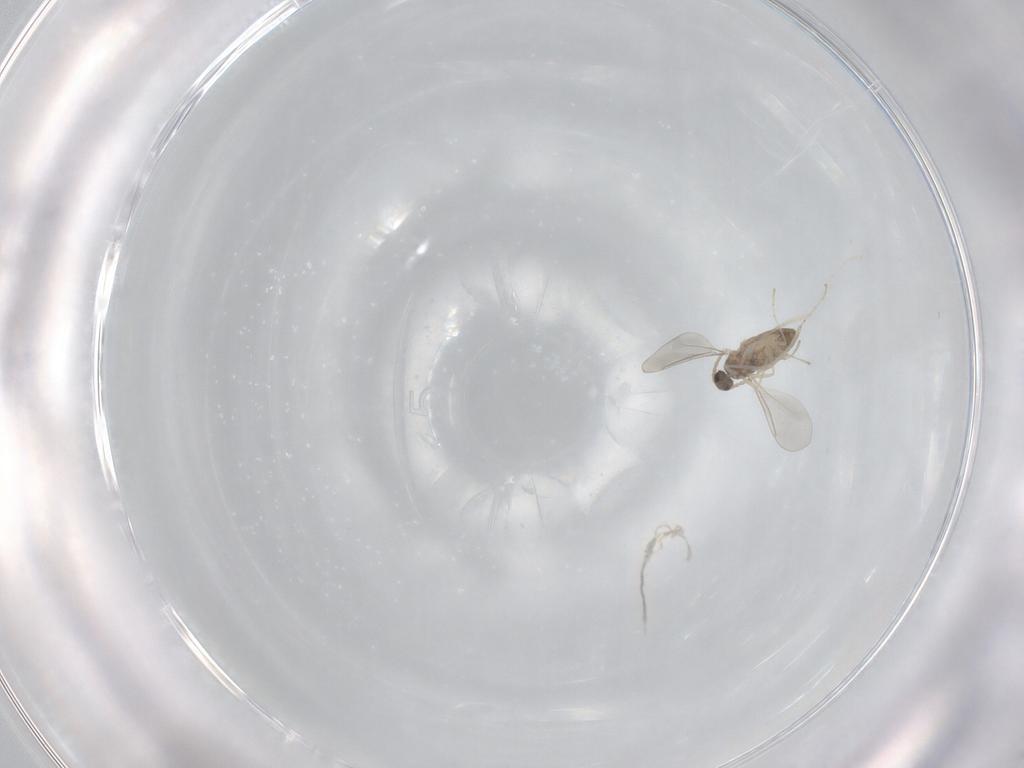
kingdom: Animalia
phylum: Arthropoda
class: Insecta
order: Diptera
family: Cecidomyiidae
